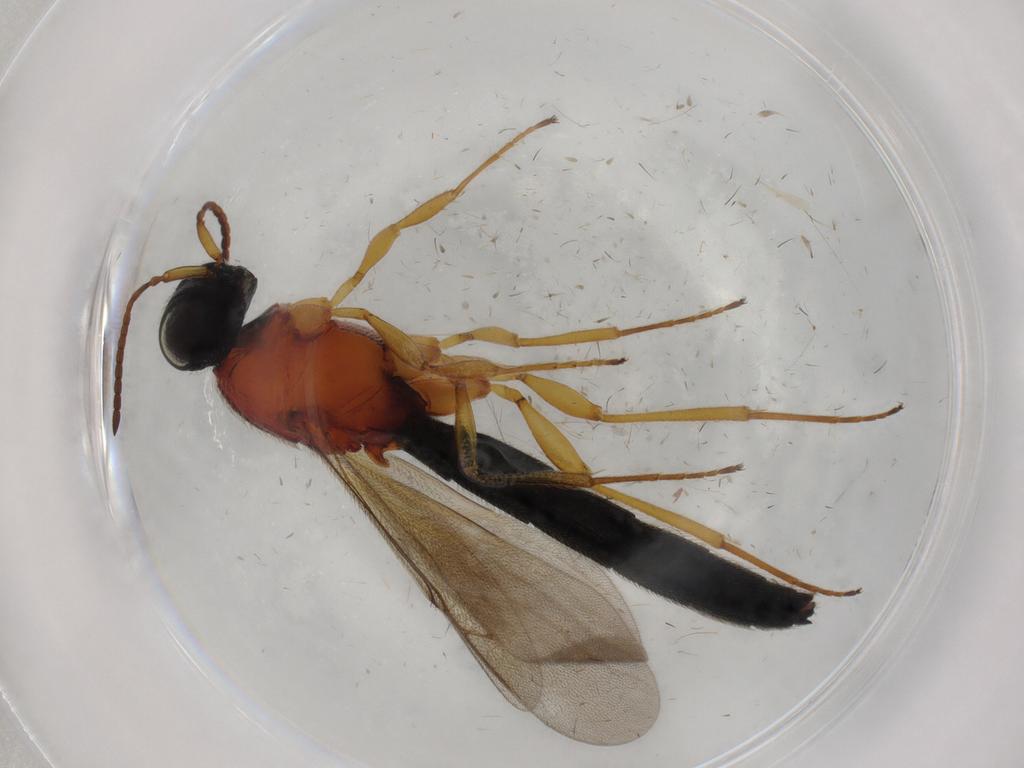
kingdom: Animalia
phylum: Arthropoda
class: Insecta
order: Hymenoptera
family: Scelionidae
